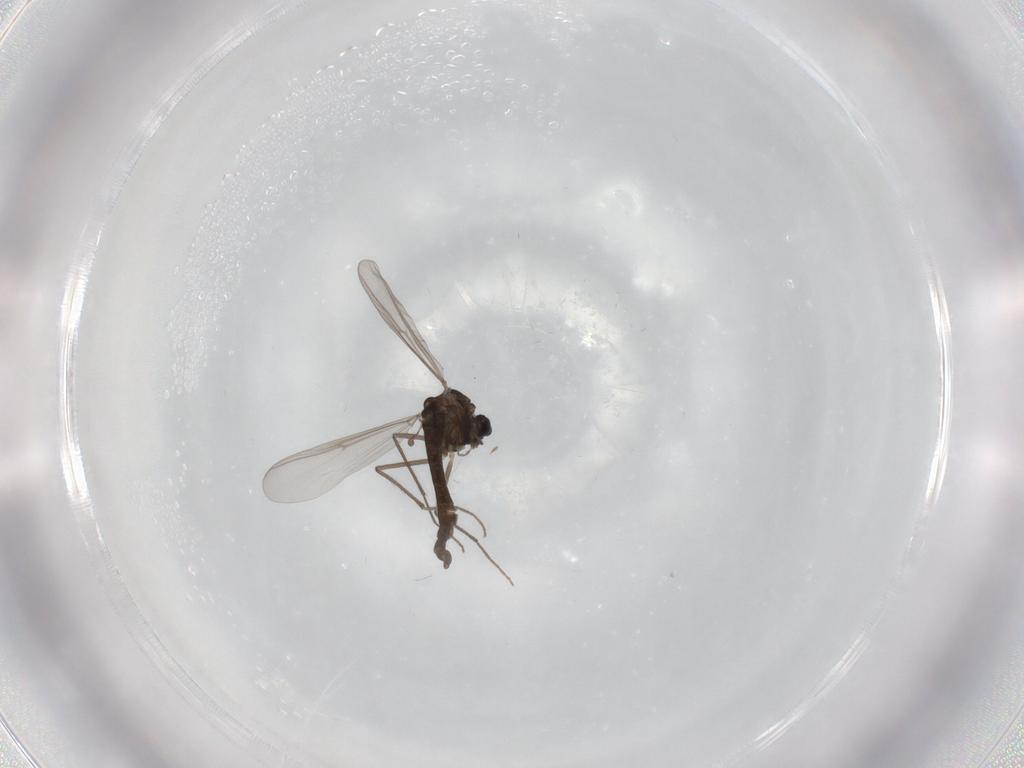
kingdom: Animalia
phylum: Arthropoda
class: Insecta
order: Diptera
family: Chironomidae
